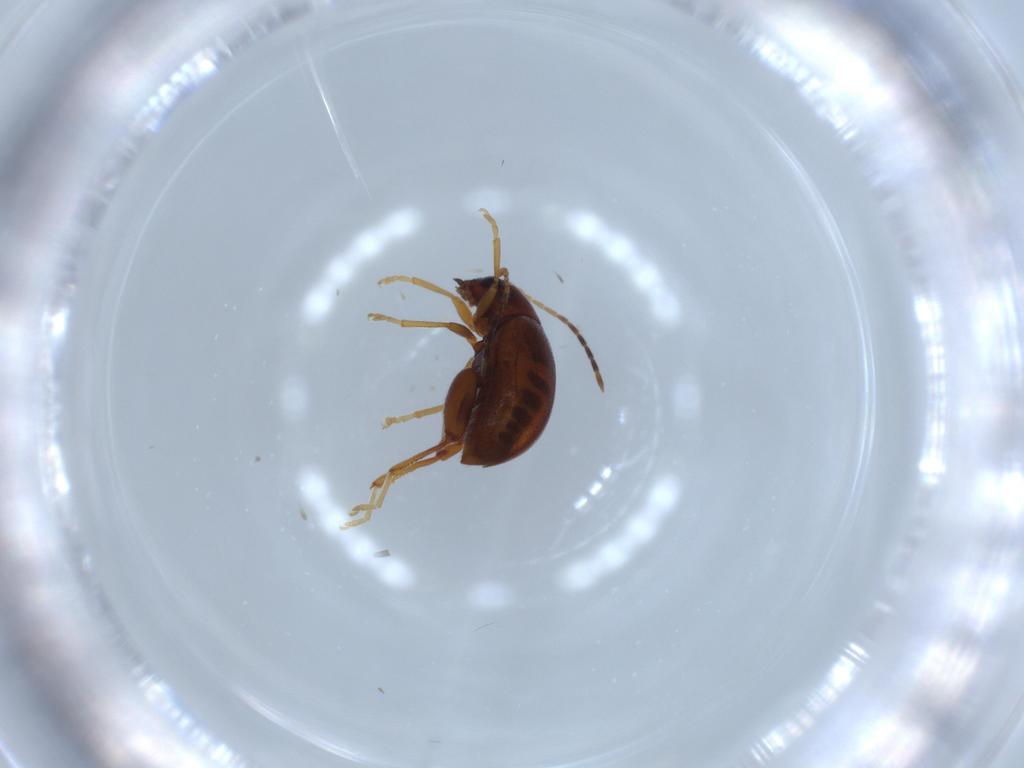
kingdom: Animalia
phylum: Arthropoda
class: Insecta
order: Coleoptera
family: Chrysomelidae
